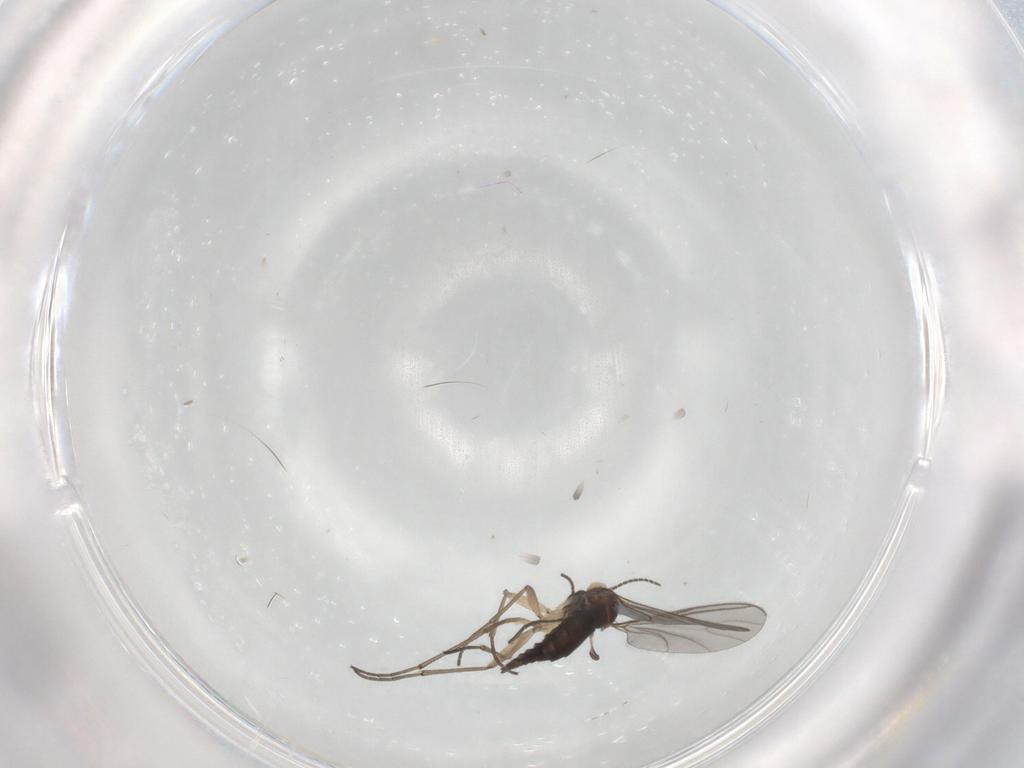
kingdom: Animalia
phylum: Arthropoda
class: Insecta
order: Diptera
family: Sciaridae
